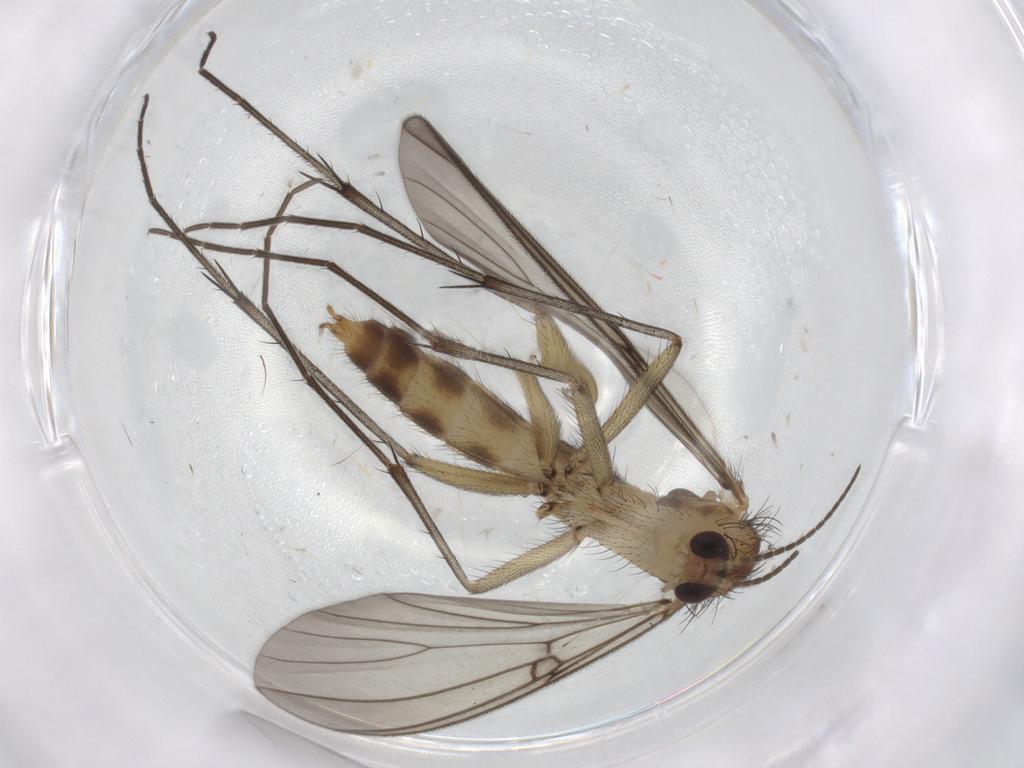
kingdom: Animalia
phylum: Arthropoda
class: Insecta
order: Diptera
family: Mycetophilidae
